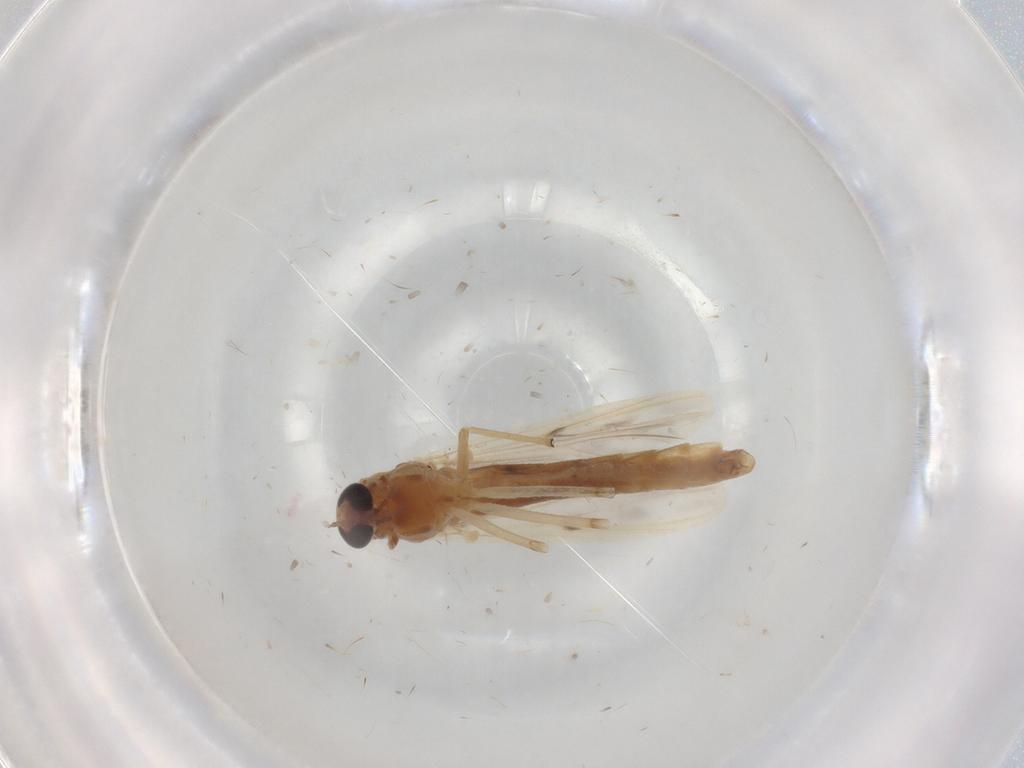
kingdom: Animalia
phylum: Arthropoda
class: Insecta
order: Diptera
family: Chironomidae
